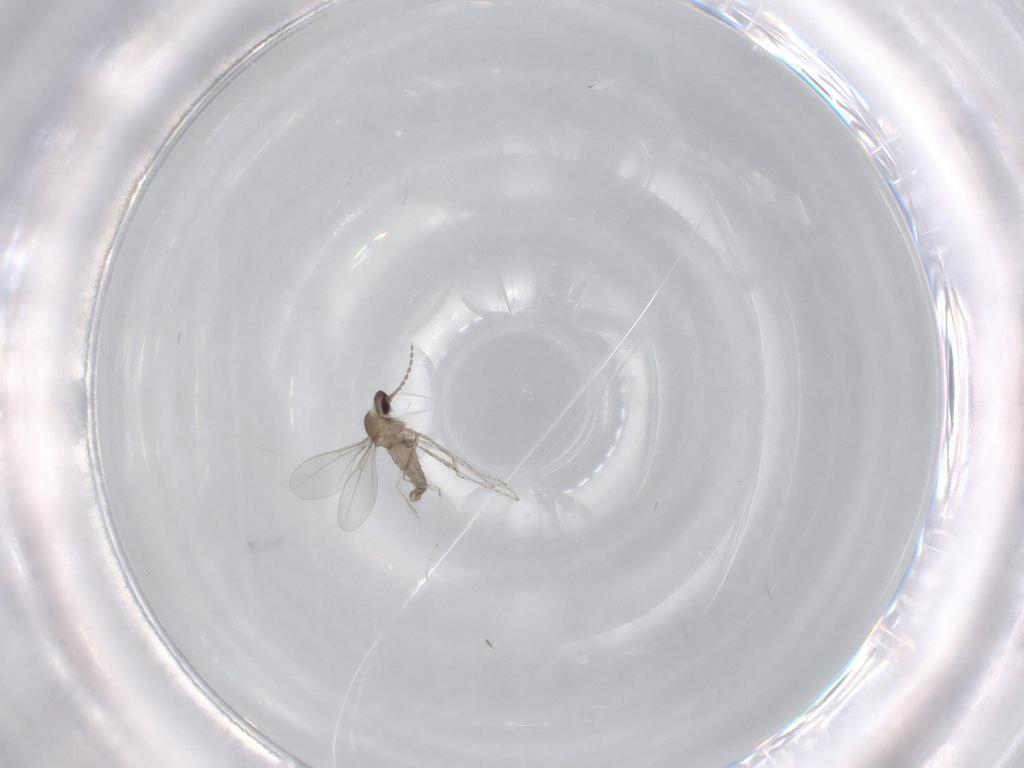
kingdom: Animalia
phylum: Arthropoda
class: Insecta
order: Diptera
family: Cecidomyiidae
